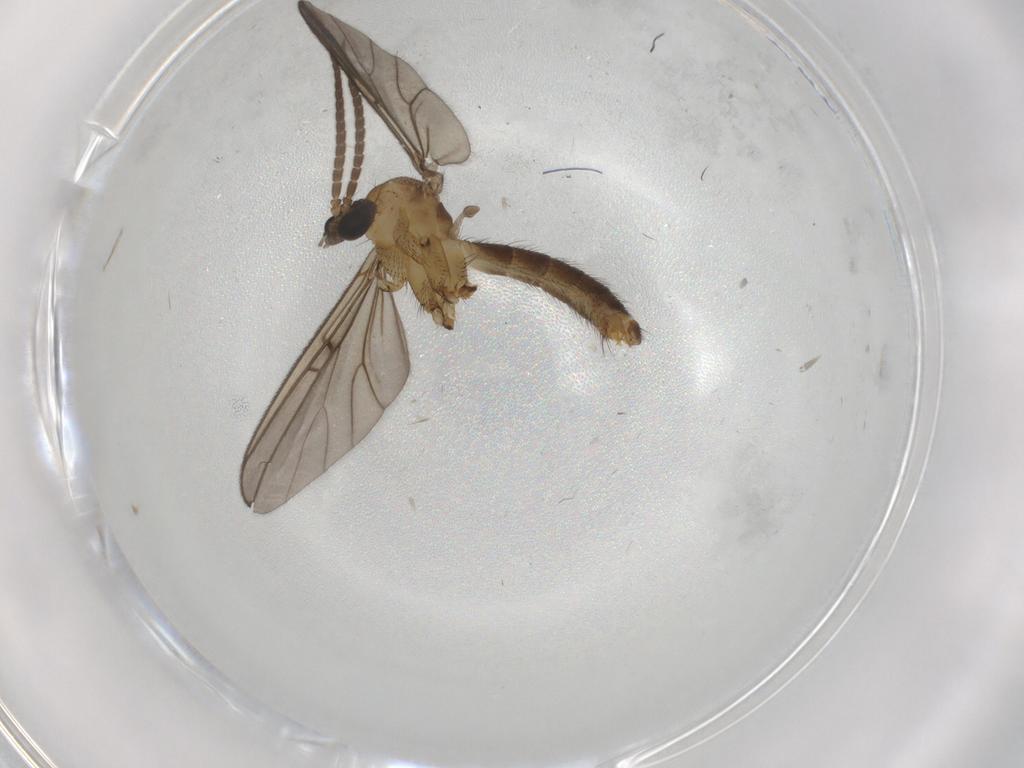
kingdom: Animalia
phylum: Arthropoda
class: Insecta
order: Diptera
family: Sciaridae
